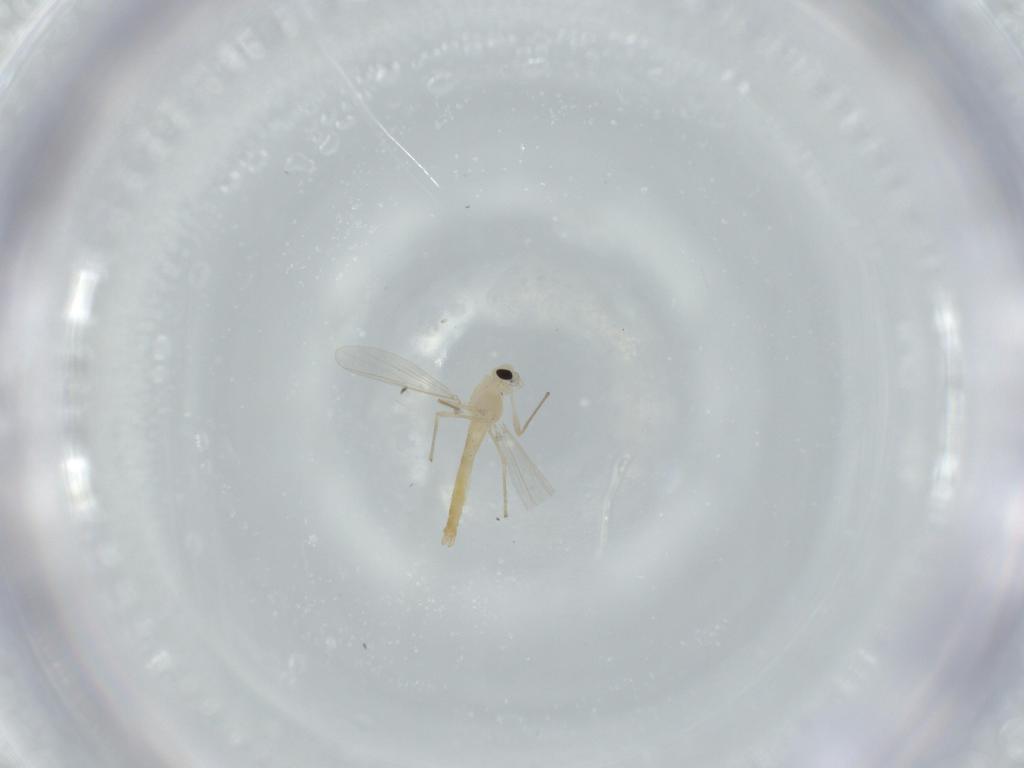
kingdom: Animalia
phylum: Arthropoda
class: Insecta
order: Diptera
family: Chironomidae
